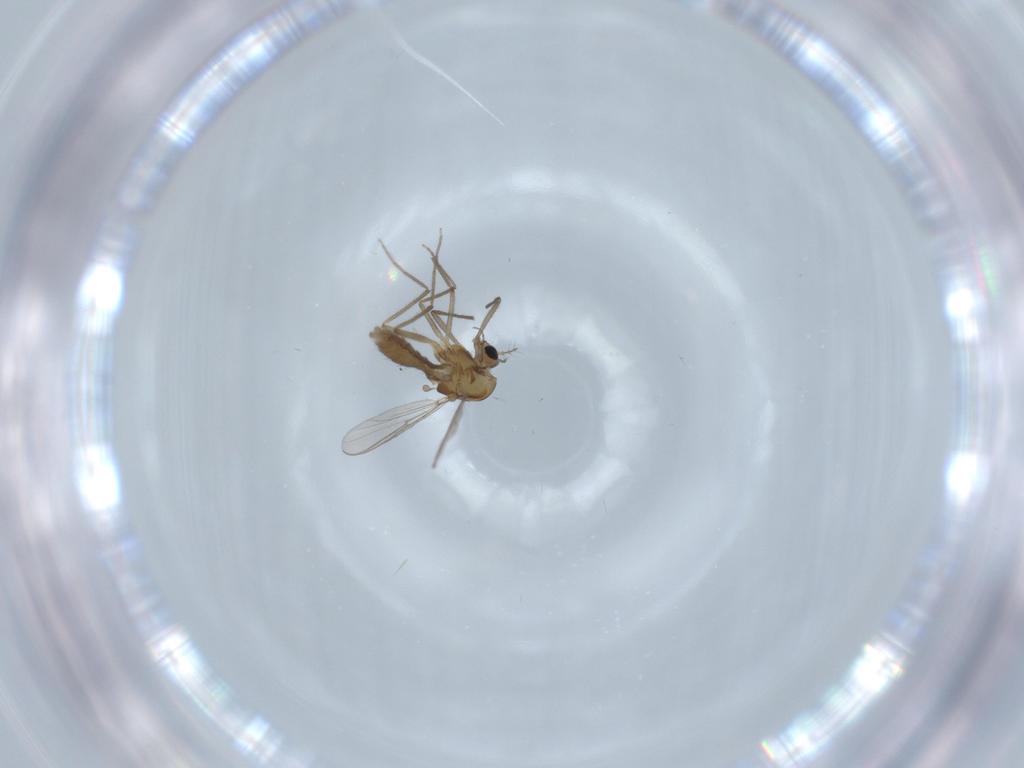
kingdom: Animalia
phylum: Arthropoda
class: Insecta
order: Diptera
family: Chironomidae
